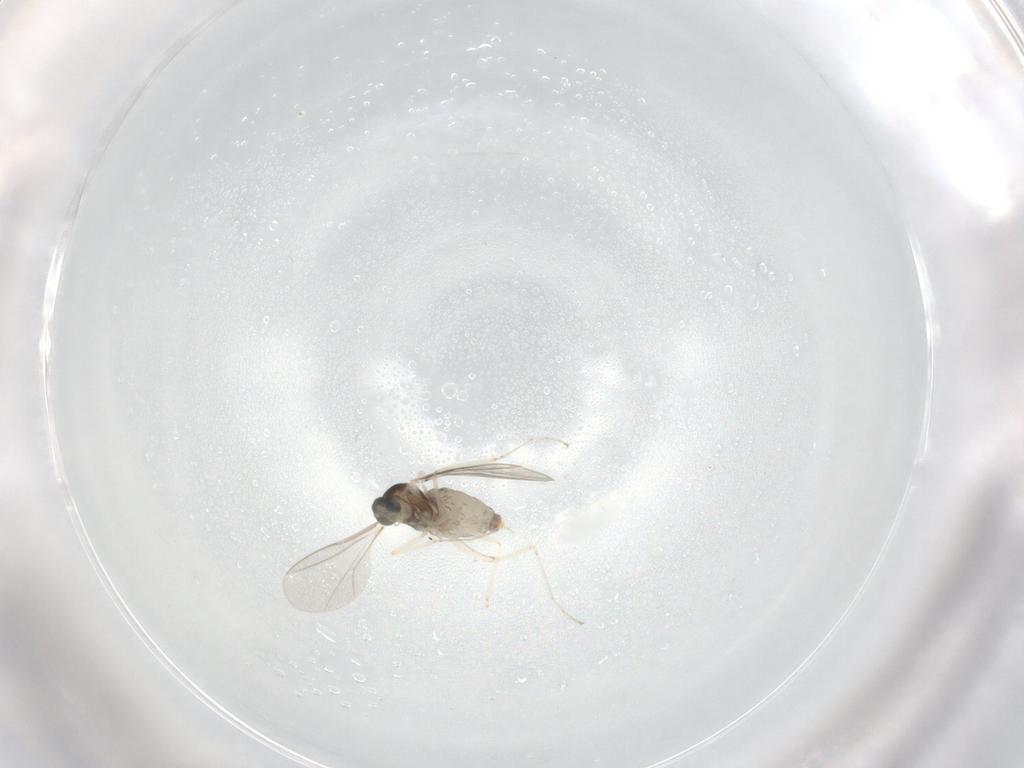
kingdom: Animalia
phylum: Arthropoda
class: Insecta
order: Diptera
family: Cecidomyiidae
